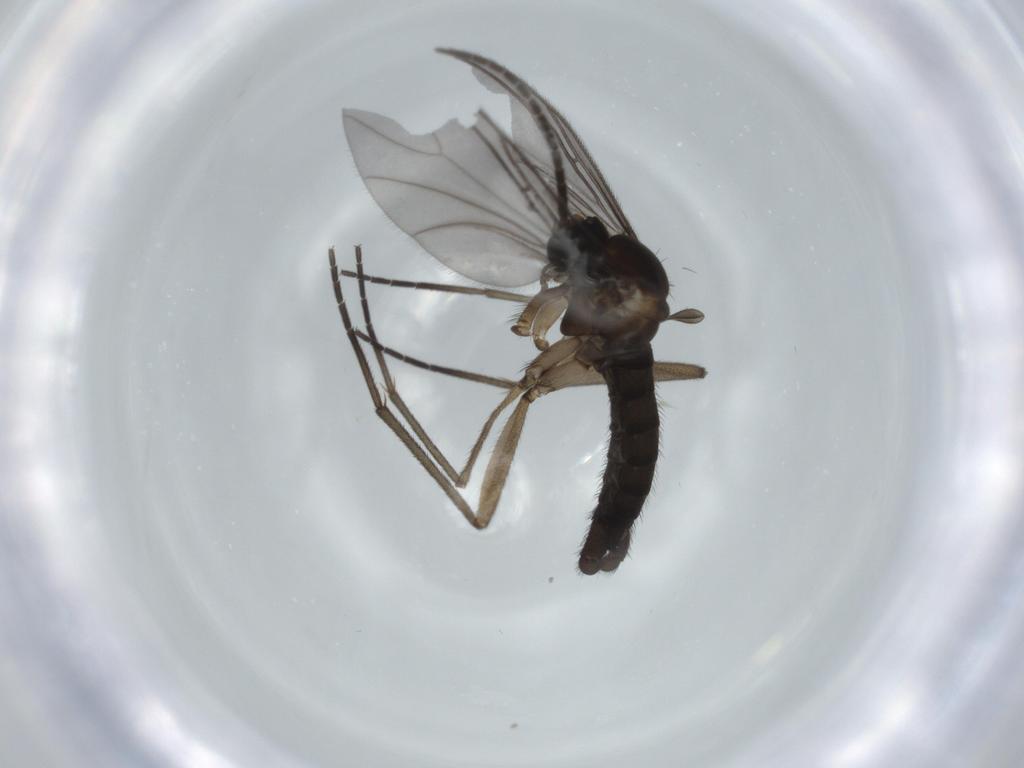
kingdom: Animalia
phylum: Arthropoda
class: Insecta
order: Diptera
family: Sciaridae
